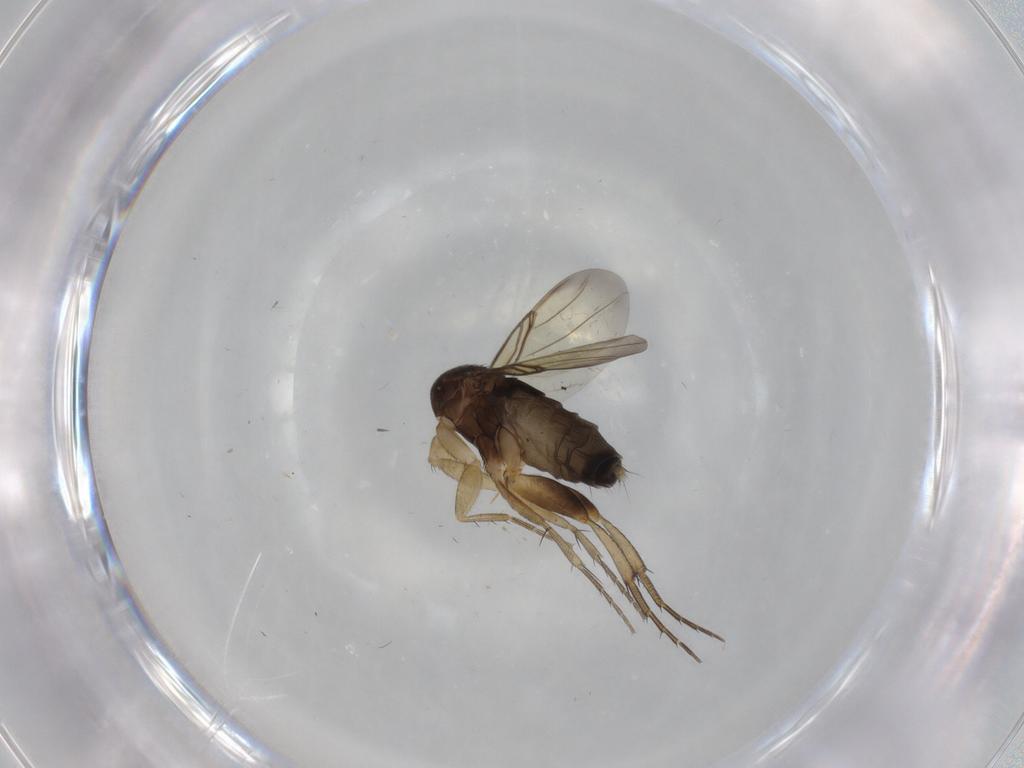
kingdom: Animalia
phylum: Arthropoda
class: Insecta
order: Diptera
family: Phoridae
